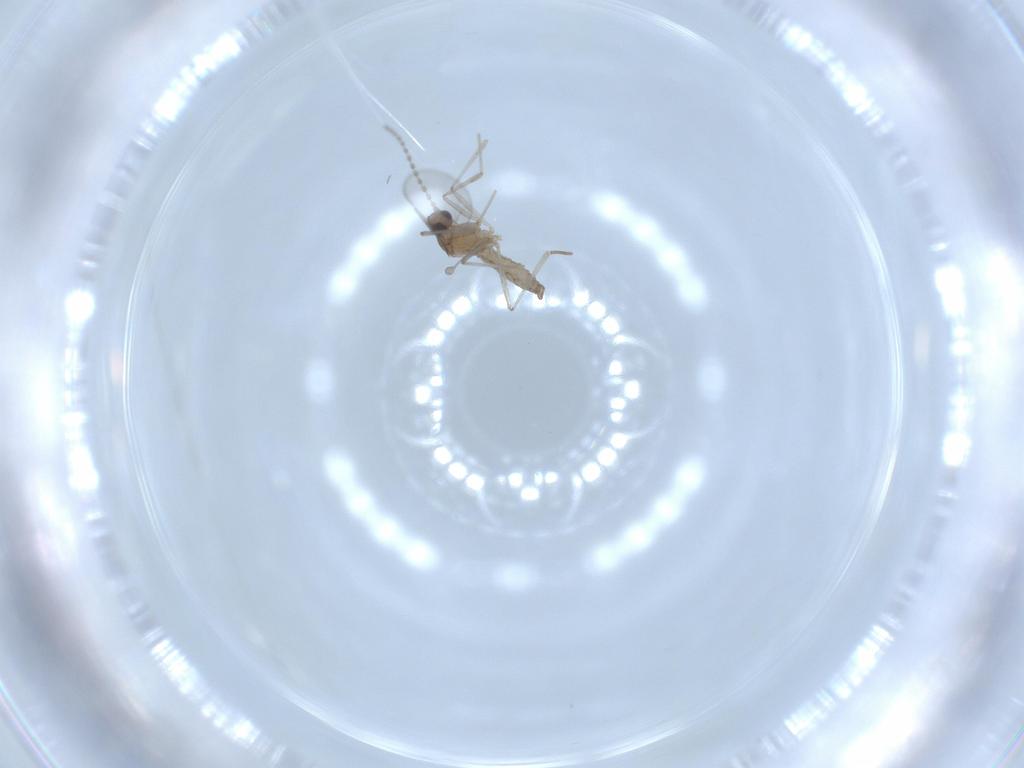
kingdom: Animalia
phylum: Arthropoda
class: Insecta
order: Diptera
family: Cecidomyiidae
